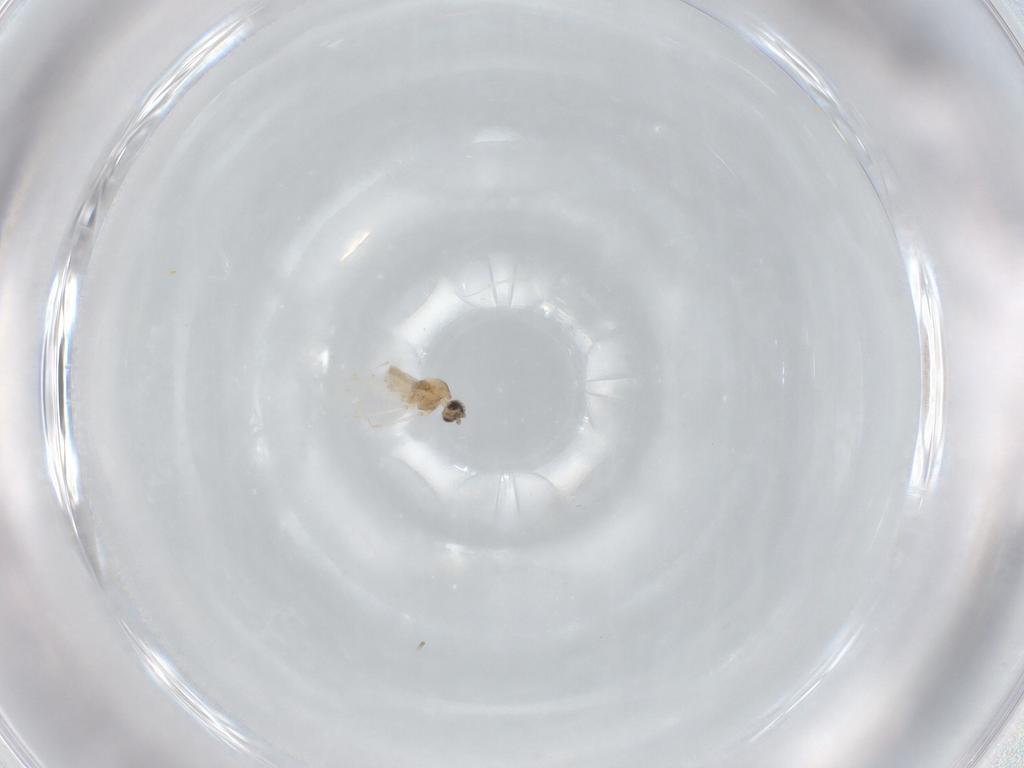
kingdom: Animalia
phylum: Arthropoda
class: Insecta
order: Diptera
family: Cecidomyiidae
